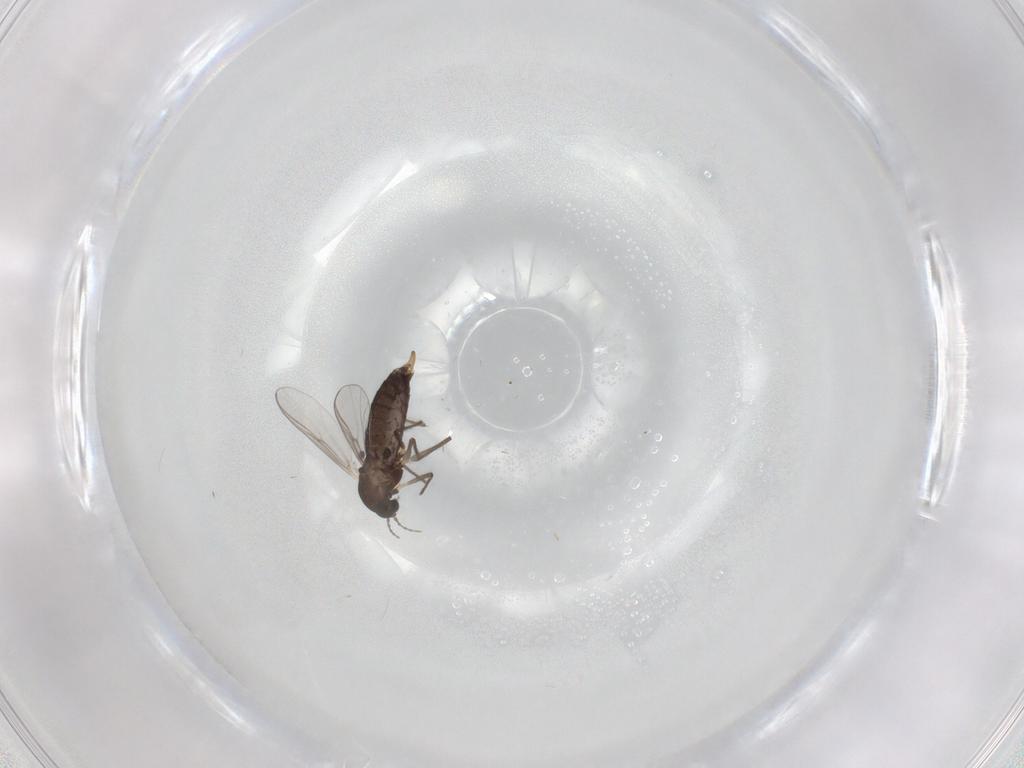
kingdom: Animalia
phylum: Arthropoda
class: Insecta
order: Diptera
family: Chironomidae
